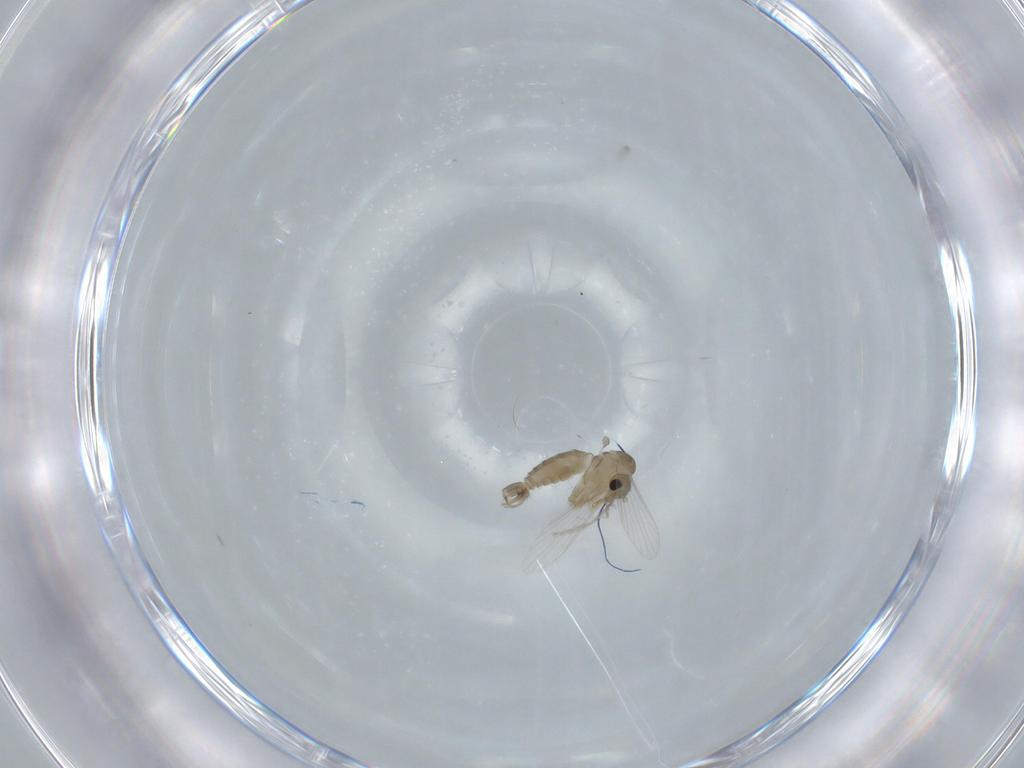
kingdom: Animalia
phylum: Arthropoda
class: Insecta
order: Diptera
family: Psychodidae
